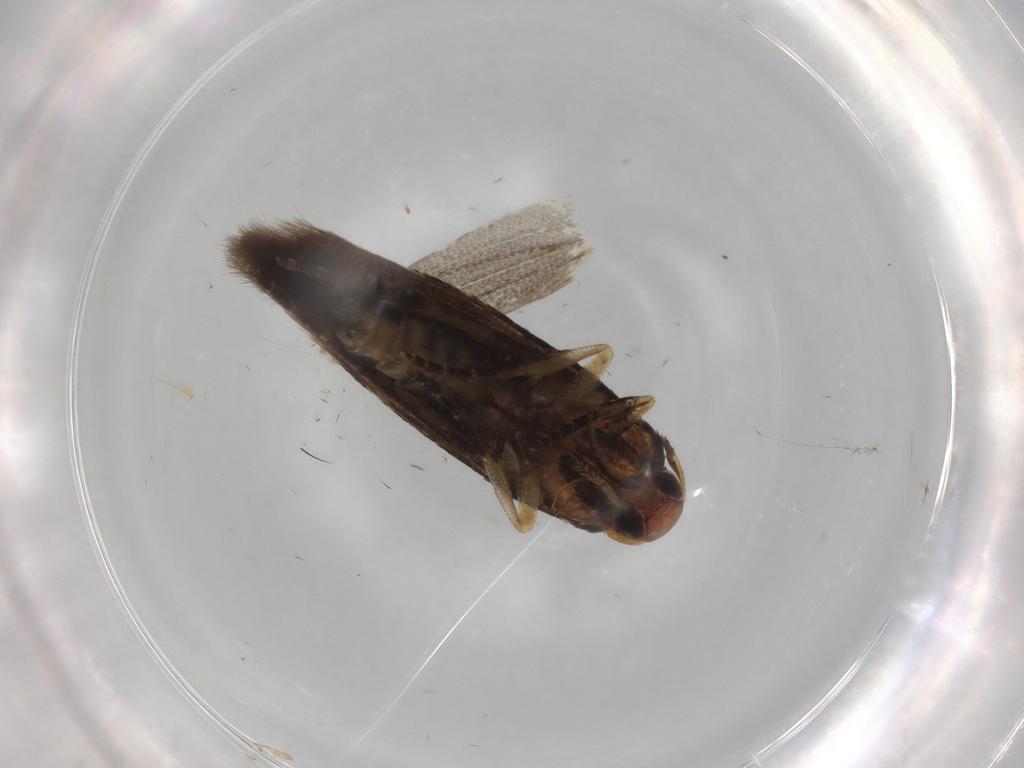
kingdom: Animalia
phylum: Arthropoda
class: Insecta
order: Lepidoptera
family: Cosmopterigidae
